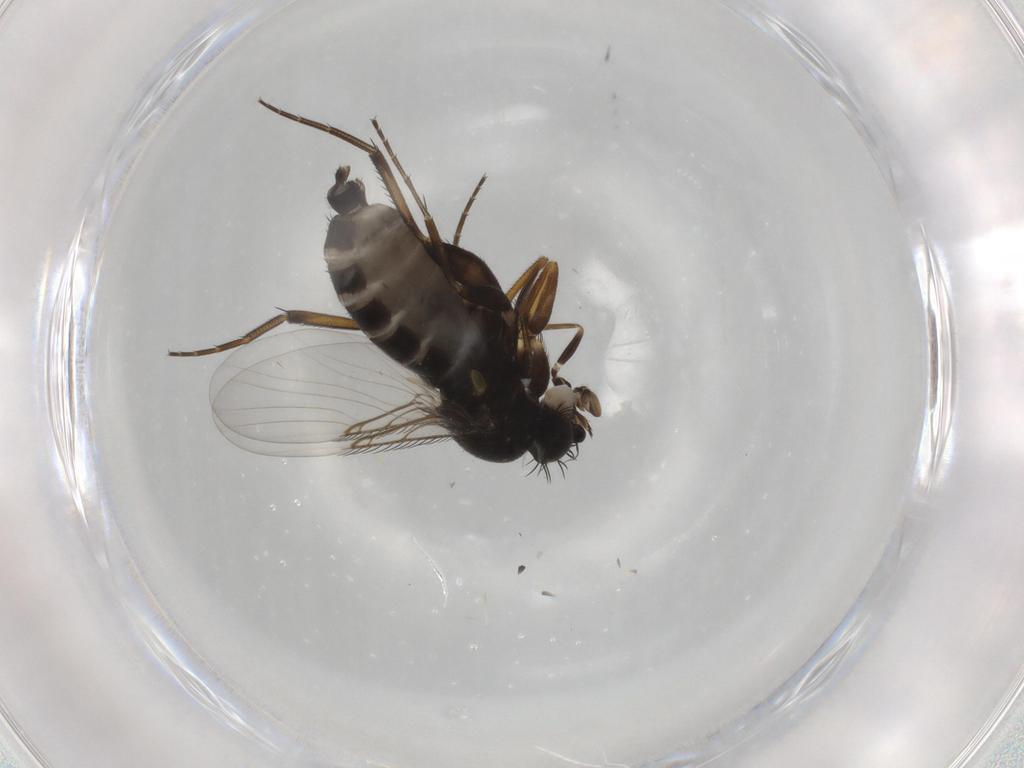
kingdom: Animalia
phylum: Arthropoda
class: Insecta
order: Diptera
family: Phoridae
